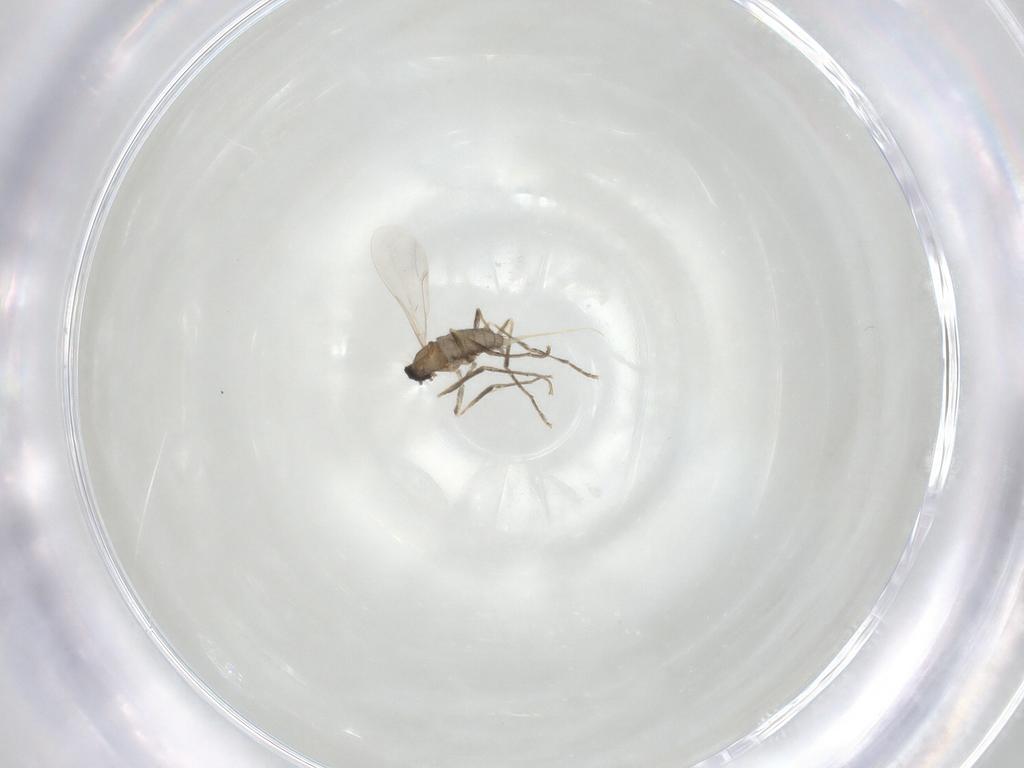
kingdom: Animalia
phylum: Arthropoda
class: Insecta
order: Diptera
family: Cecidomyiidae
